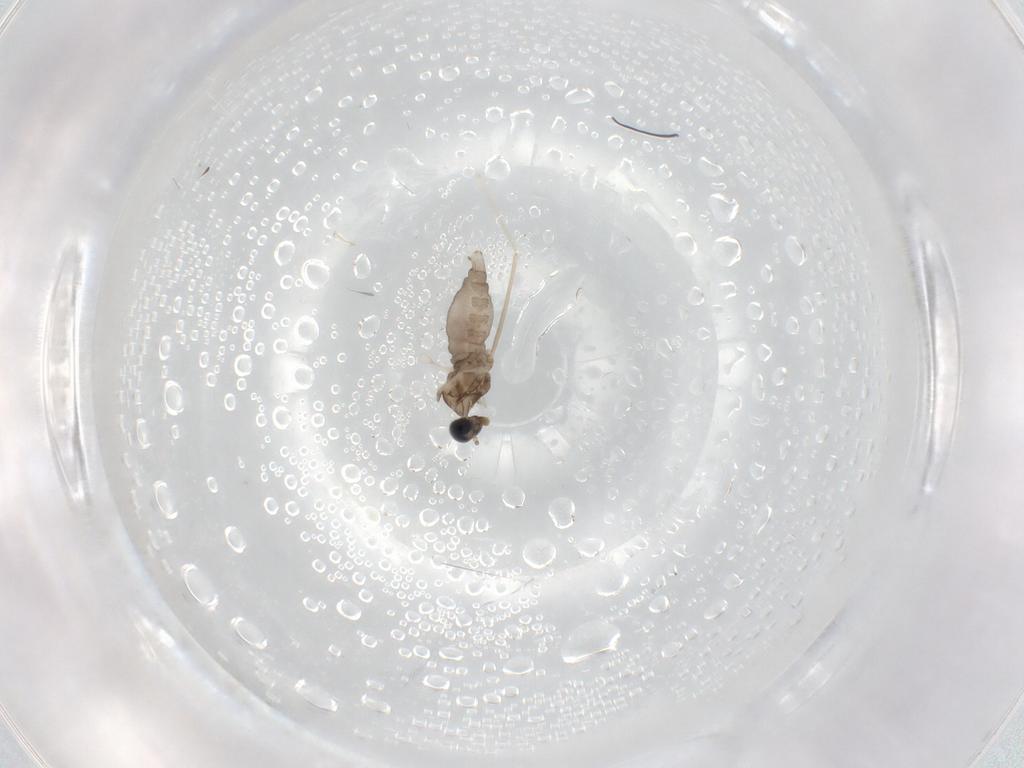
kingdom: Animalia
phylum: Arthropoda
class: Insecta
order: Diptera
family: Cecidomyiidae
